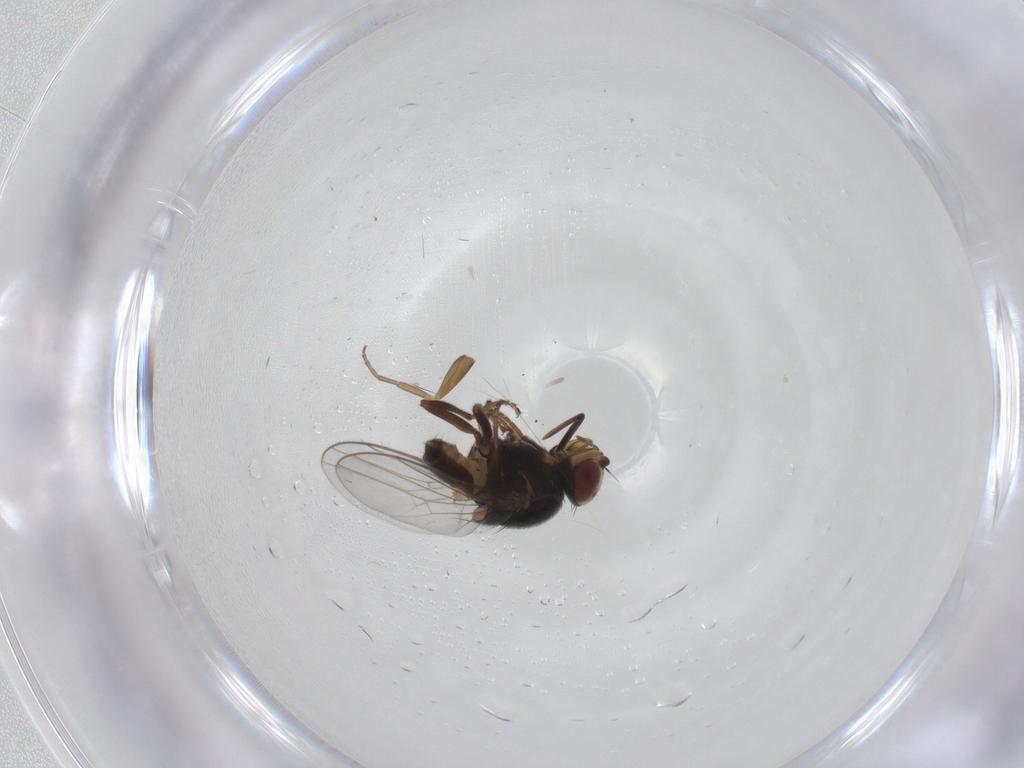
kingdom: Animalia
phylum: Arthropoda
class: Insecta
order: Diptera
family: Chloropidae
